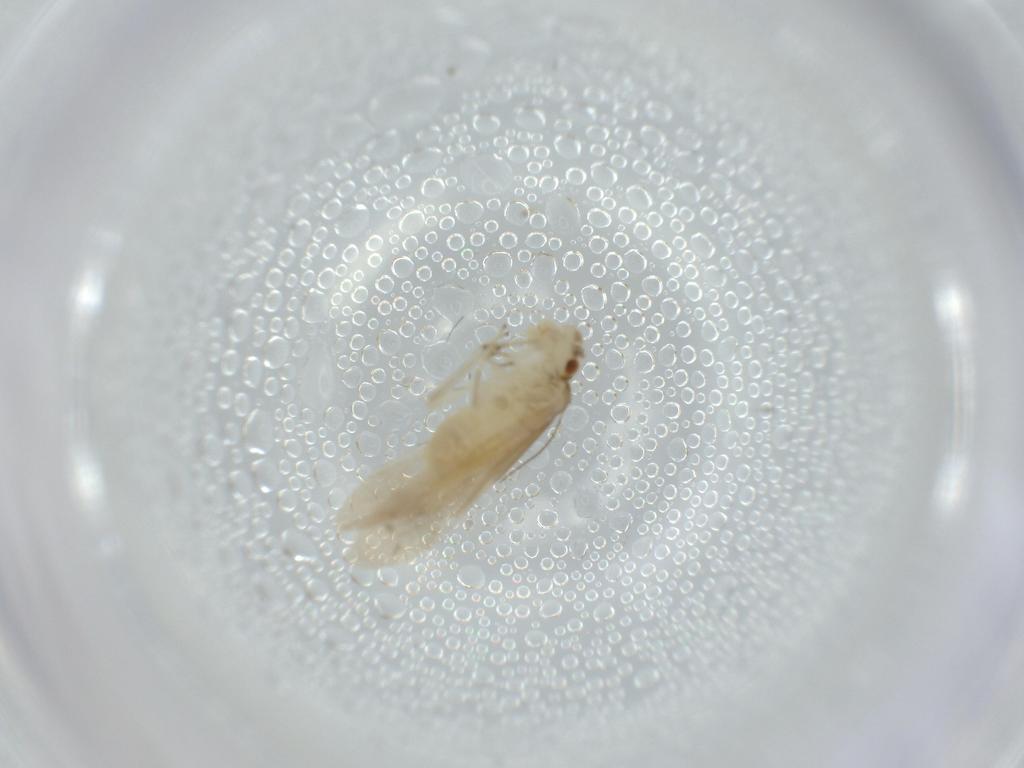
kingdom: Animalia
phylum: Arthropoda
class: Insecta
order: Psocodea
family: Caeciliusidae
